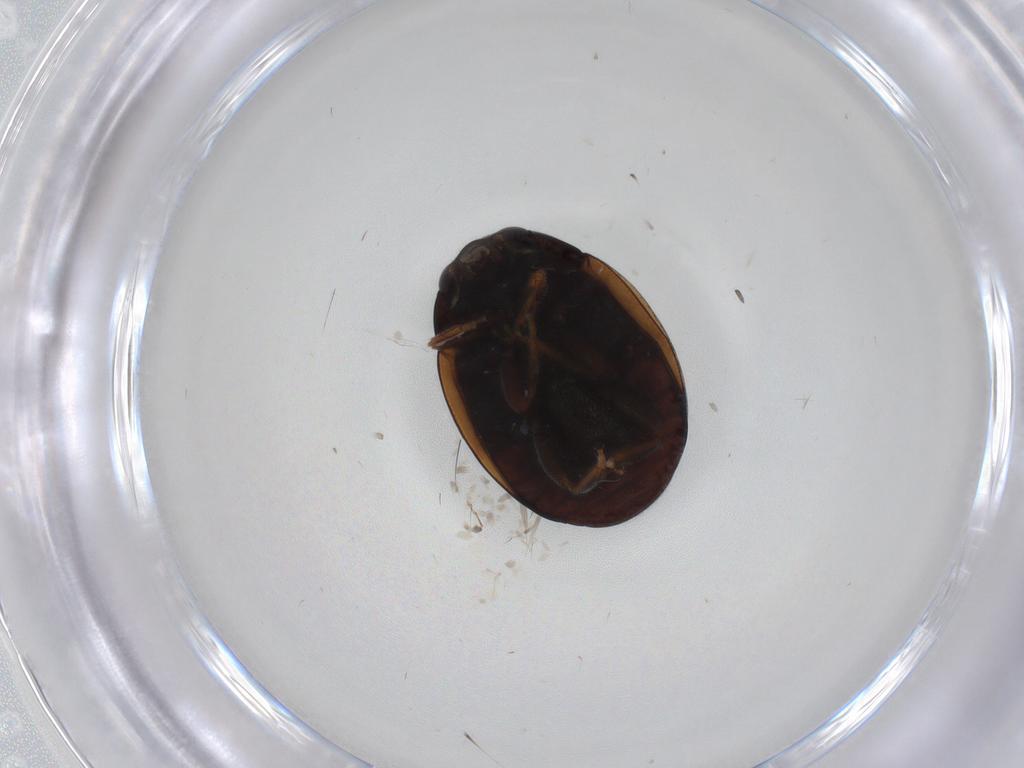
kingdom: Animalia
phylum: Arthropoda
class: Insecta
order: Coleoptera
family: Coccinellidae
